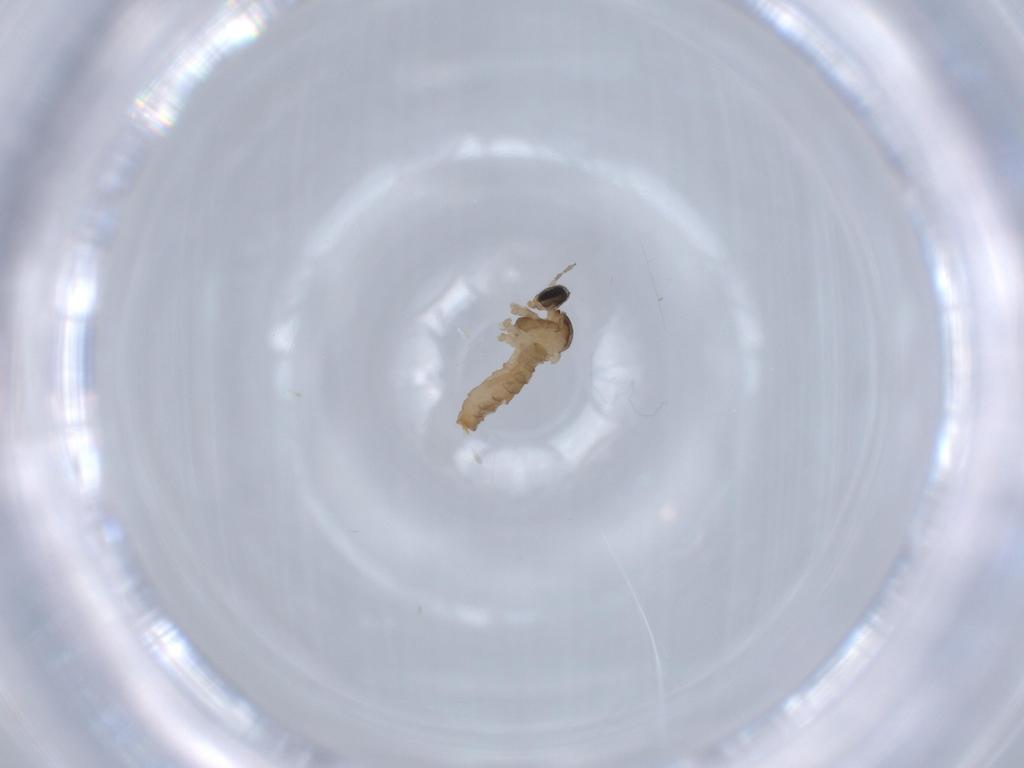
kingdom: Animalia
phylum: Arthropoda
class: Insecta
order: Diptera
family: Cecidomyiidae
